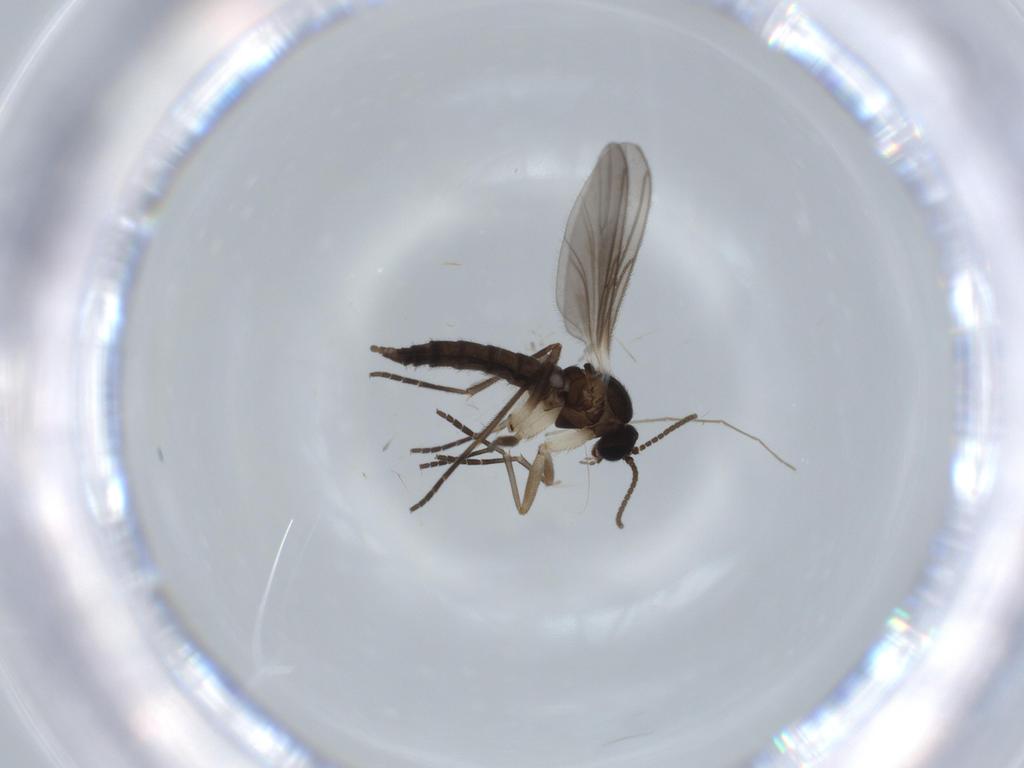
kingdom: Animalia
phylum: Arthropoda
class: Insecta
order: Diptera
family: Sciaridae
